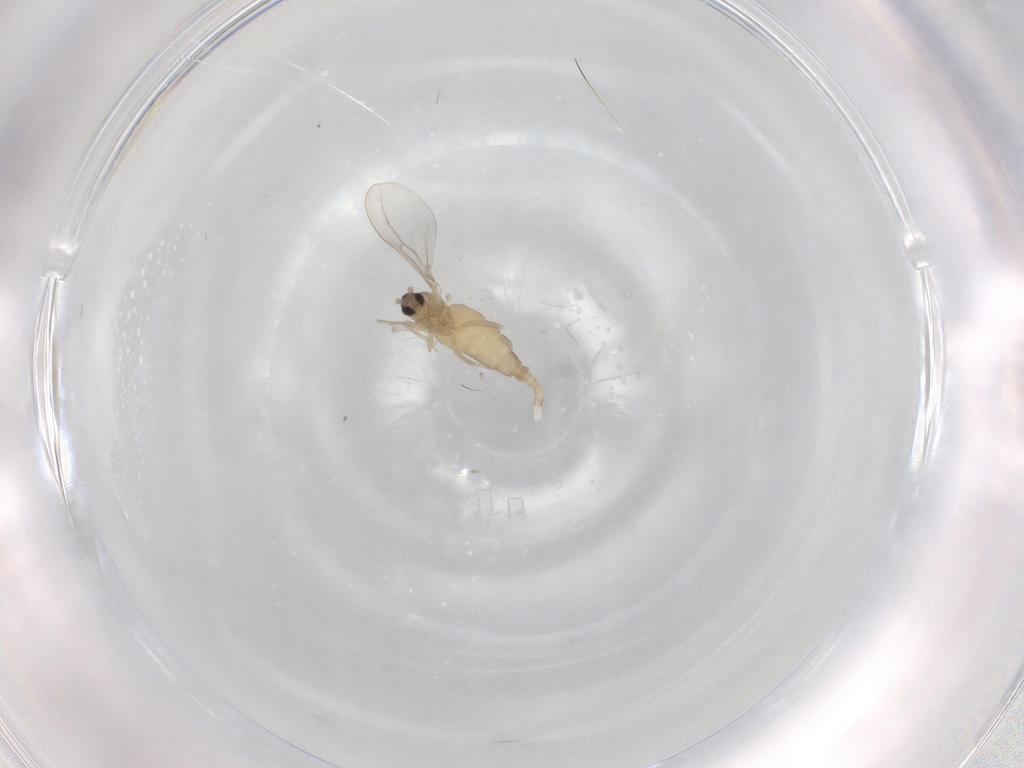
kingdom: Animalia
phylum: Arthropoda
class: Insecta
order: Diptera
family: Cecidomyiidae
